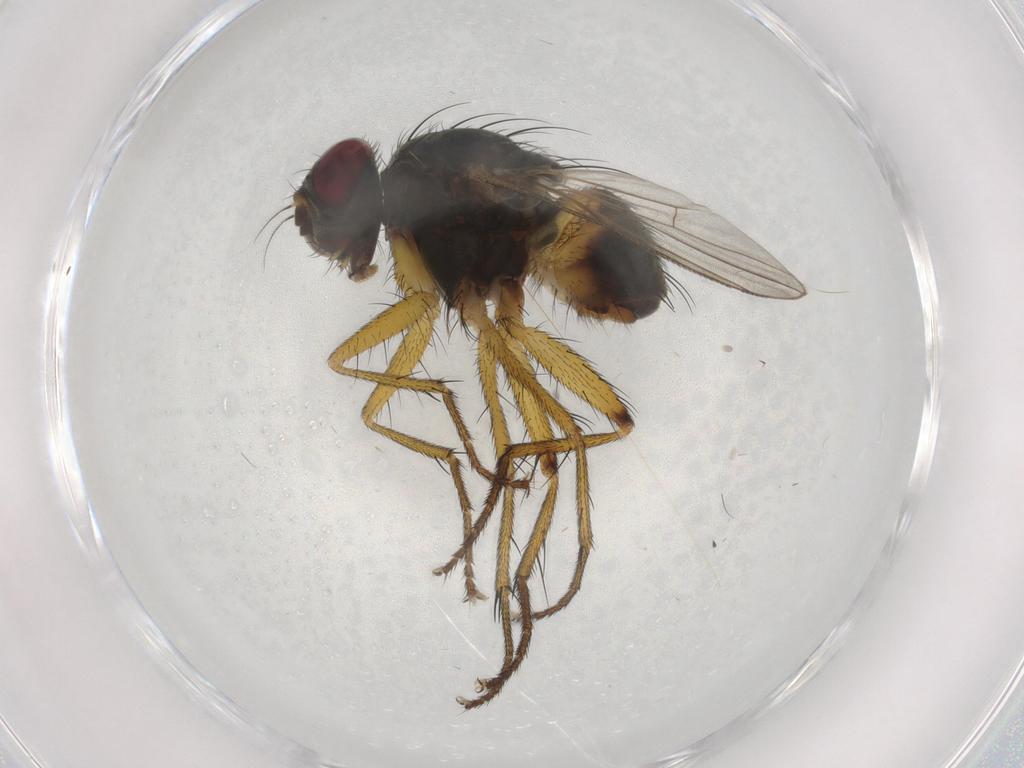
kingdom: Animalia
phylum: Arthropoda
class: Insecta
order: Diptera
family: Muscidae
